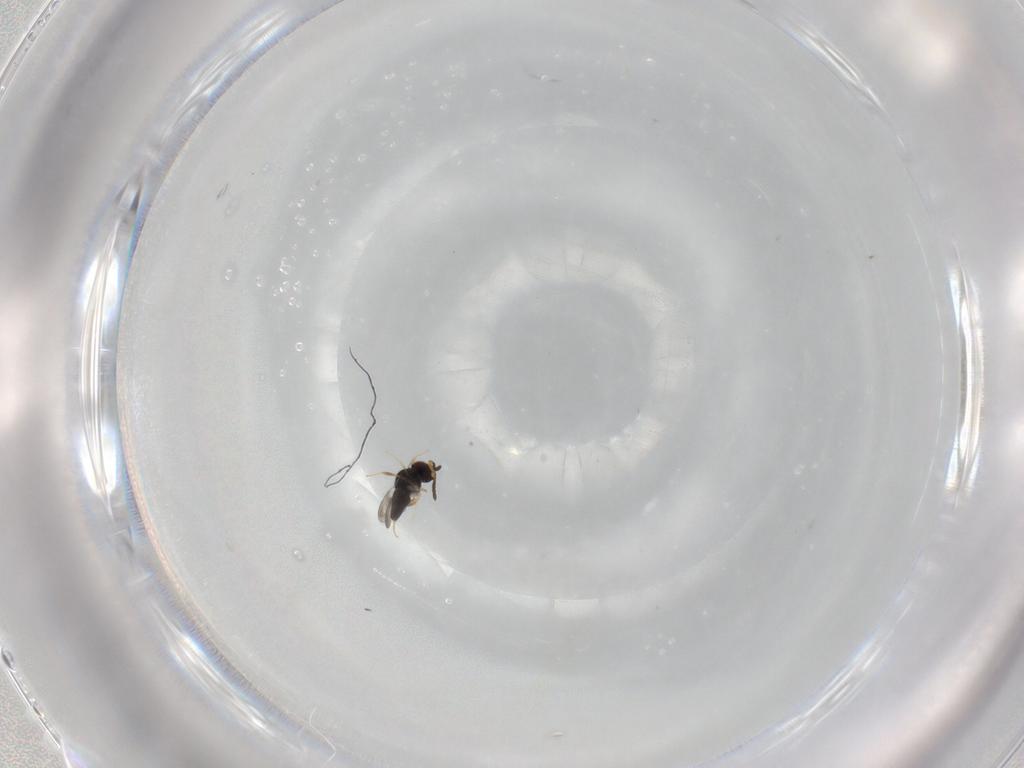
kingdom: Animalia
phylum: Arthropoda
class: Insecta
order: Hymenoptera
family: Ceraphronidae
